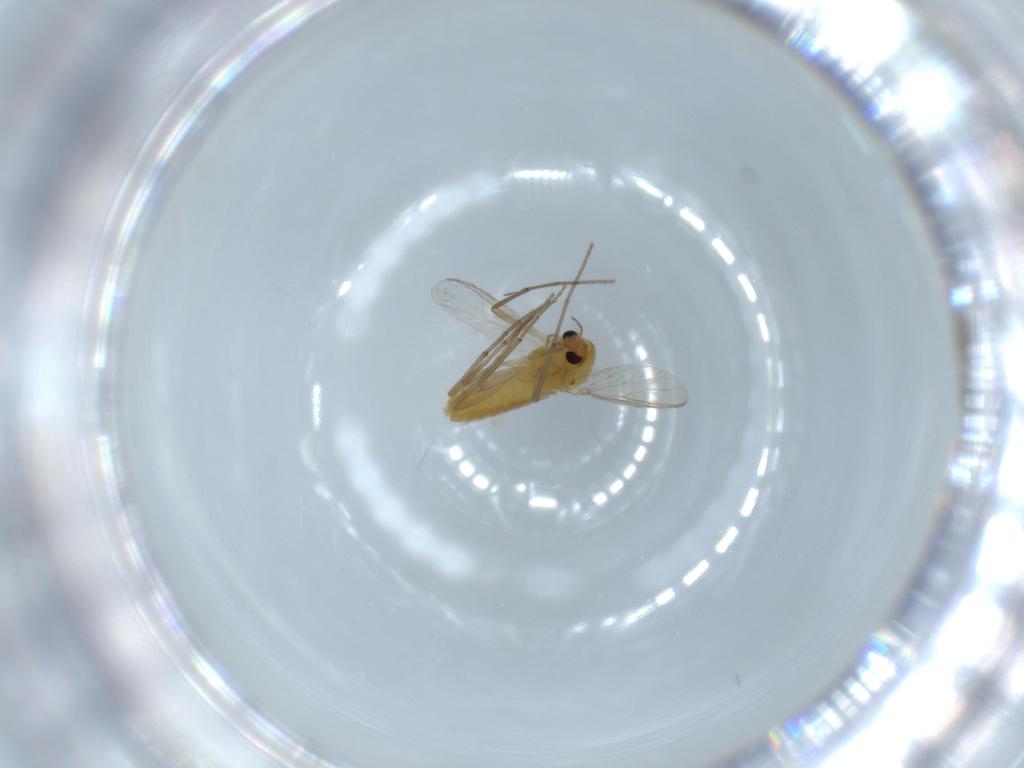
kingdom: Animalia
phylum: Arthropoda
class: Insecta
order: Diptera
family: Chironomidae
